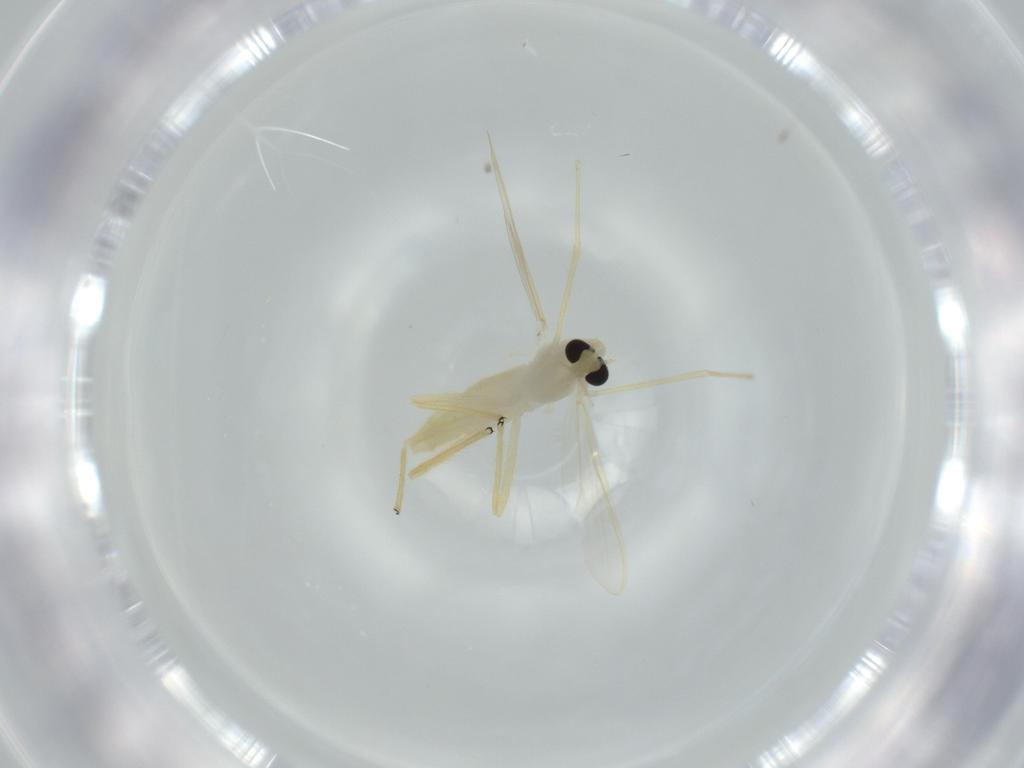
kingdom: Animalia
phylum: Arthropoda
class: Insecta
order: Diptera
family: Chironomidae
